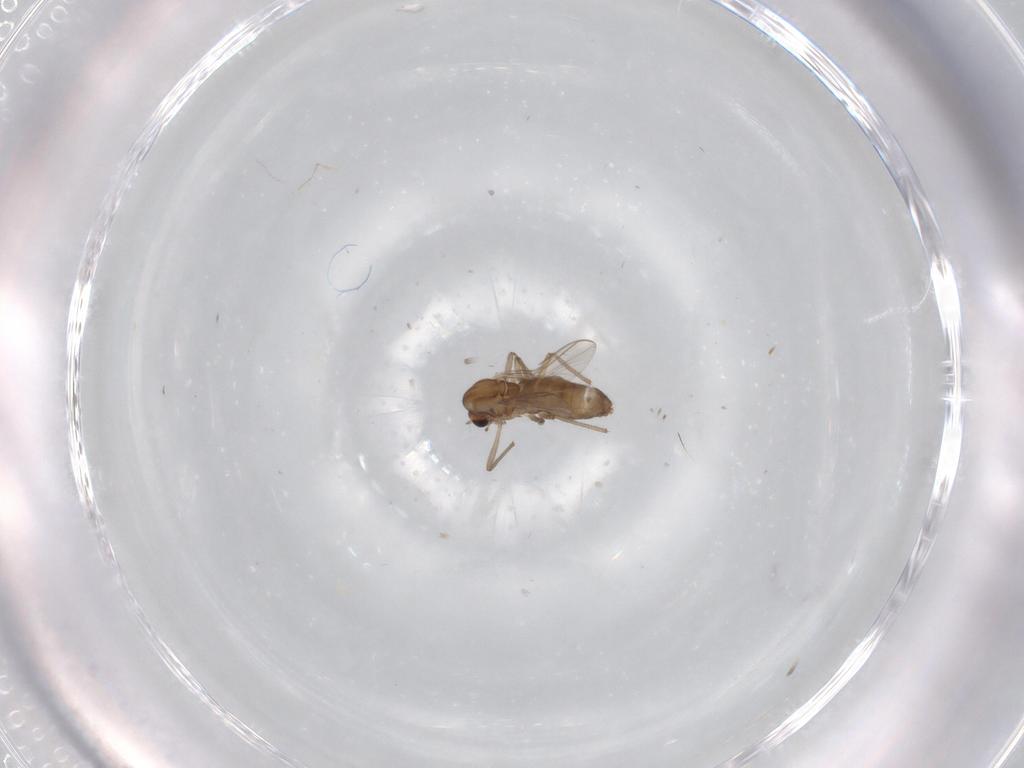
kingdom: Animalia
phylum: Arthropoda
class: Insecta
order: Diptera
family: Chironomidae
